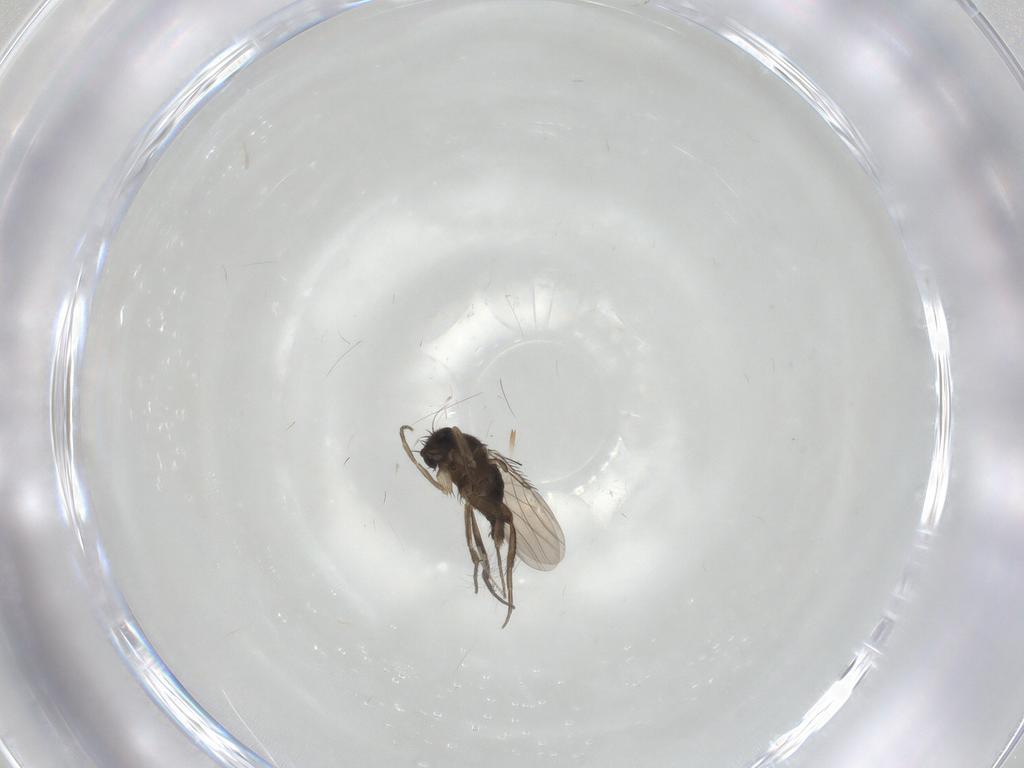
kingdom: Animalia
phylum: Arthropoda
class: Insecta
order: Diptera
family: Phoridae
